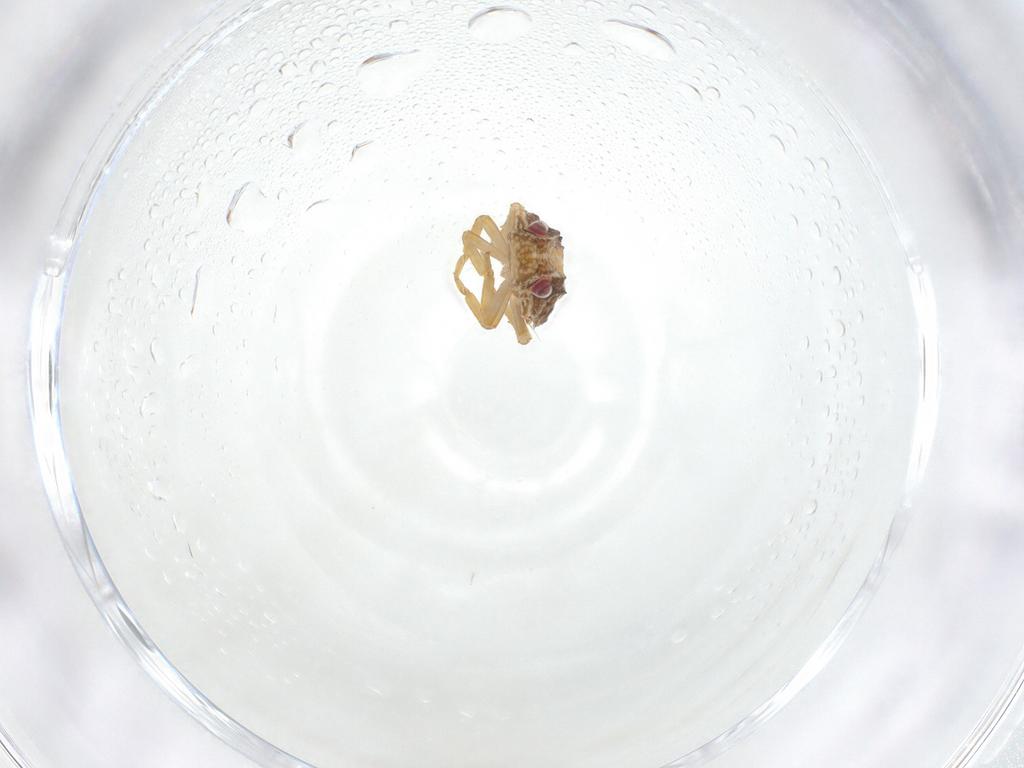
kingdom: Animalia
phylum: Arthropoda
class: Insecta
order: Hemiptera
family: Flatidae
